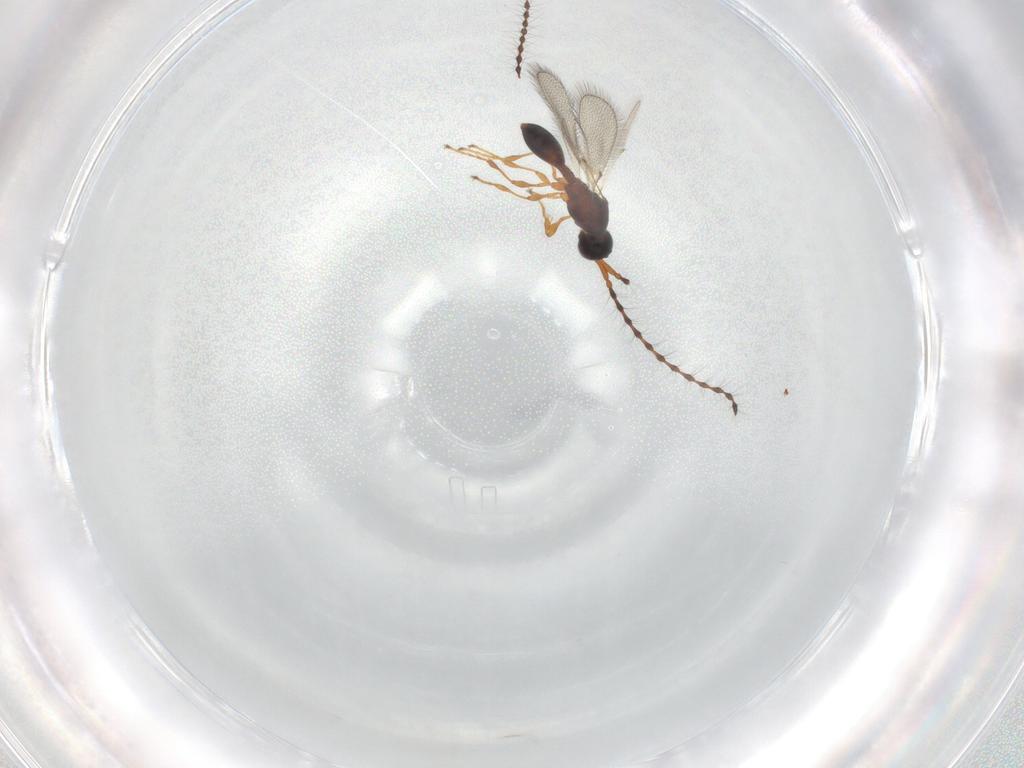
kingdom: Animalia
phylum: Arthropoda
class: Insecta
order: Hymenoptera
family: Diapriidae
